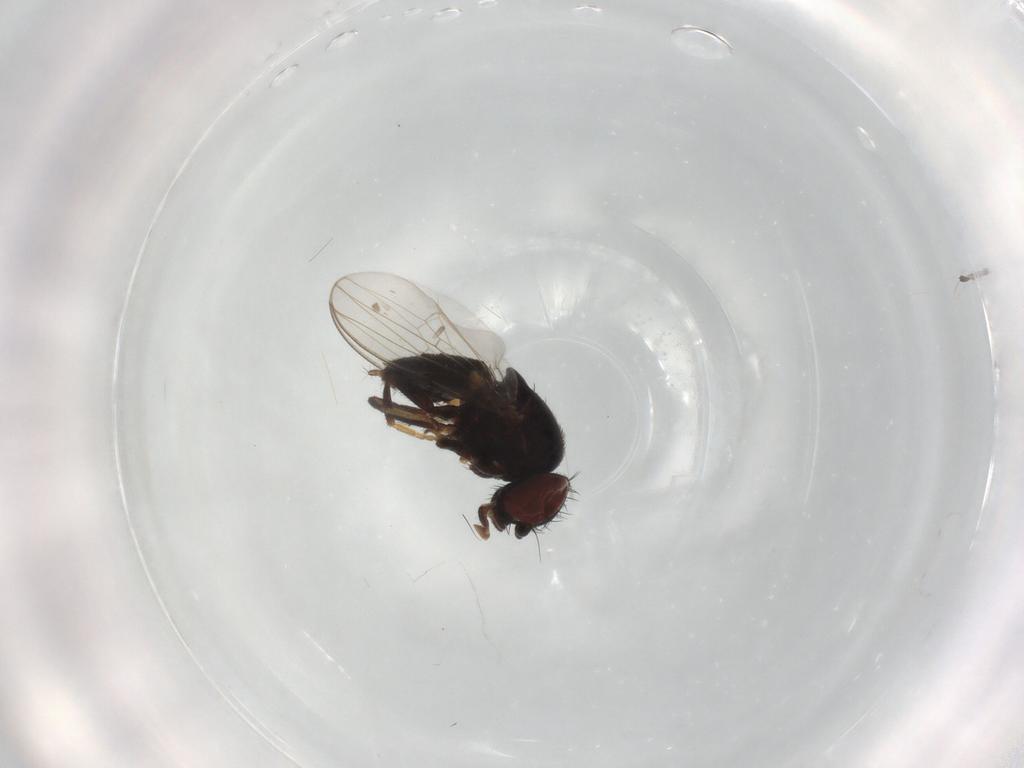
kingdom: Animalia
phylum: Arthropoda
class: Insecta
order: Diptera
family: Milichiidae
